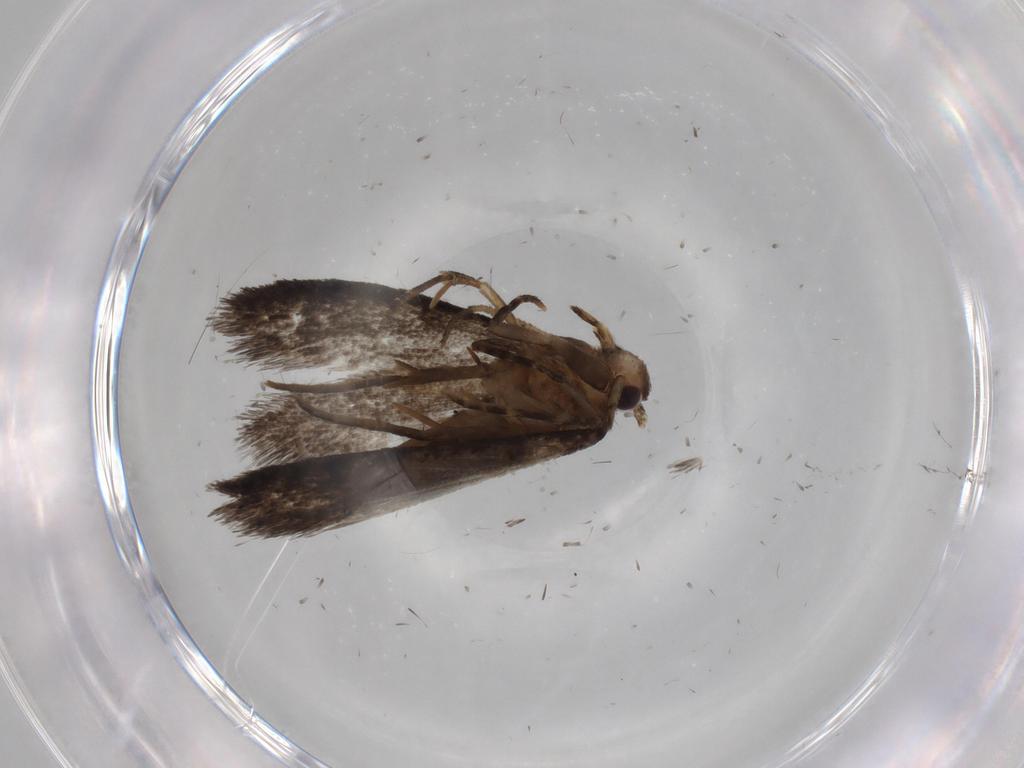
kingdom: Animalia
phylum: Arthropoda
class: Insecta
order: Lepidoptera
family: Tineidae
